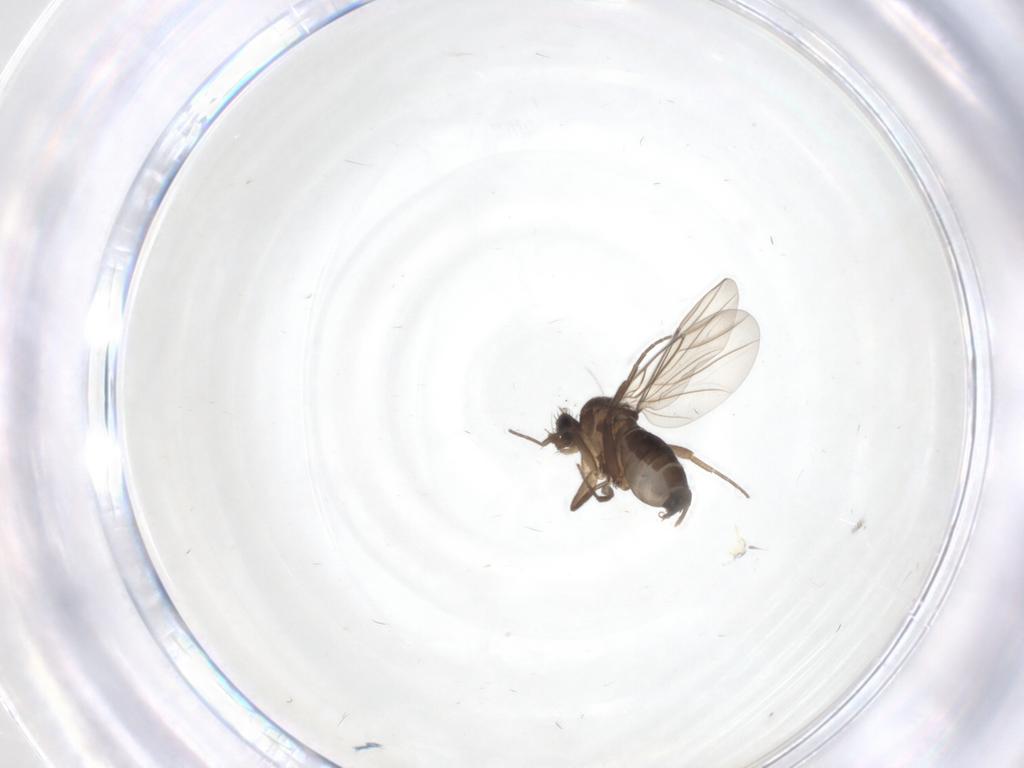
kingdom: Animalia
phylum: Arthropoda
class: Insecta
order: Diptera
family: Phoridae
